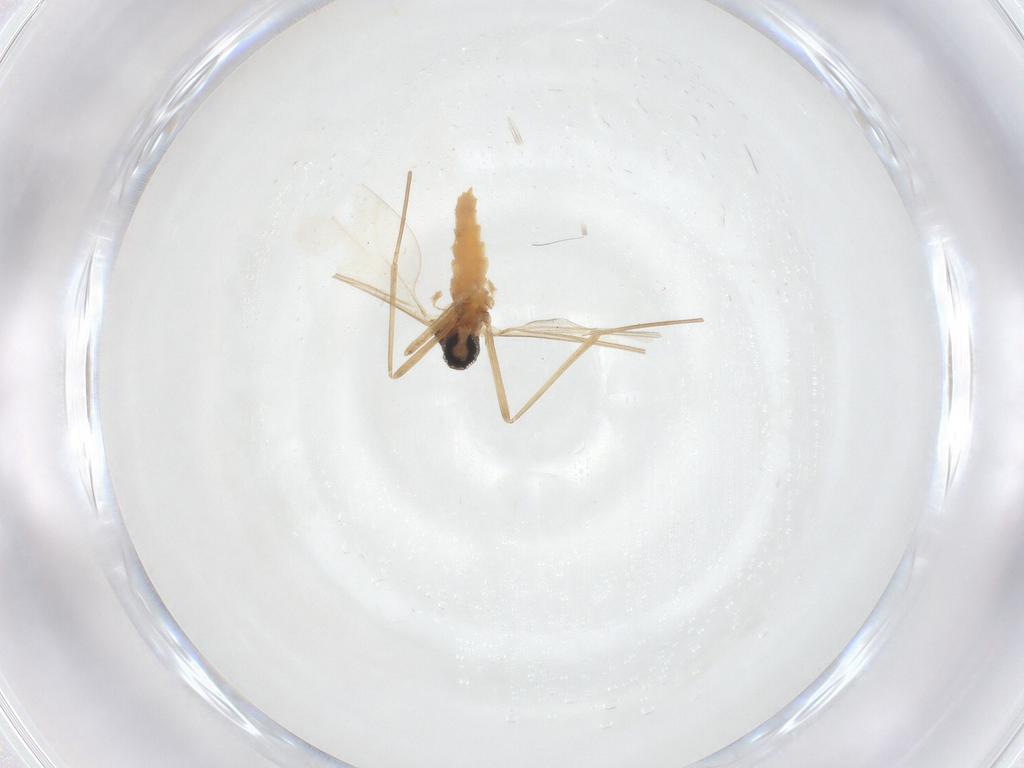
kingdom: Animalia
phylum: Arthropoda
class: Insecta
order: Diptera
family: Cecidomyiidae
